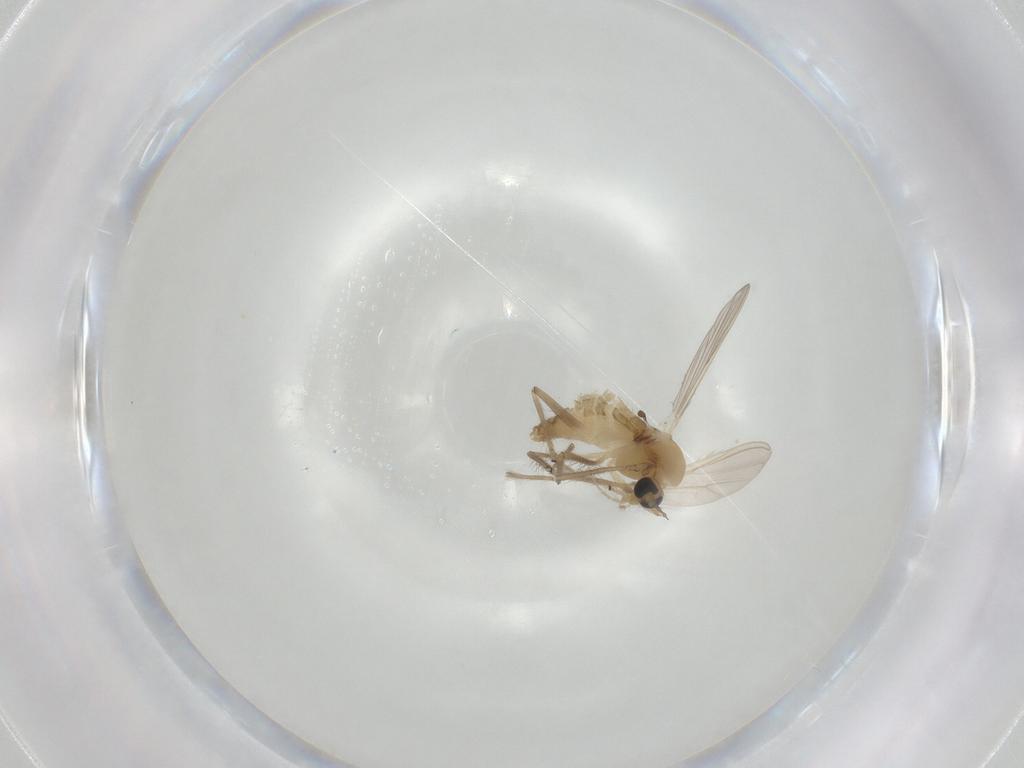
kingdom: Animalia
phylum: Arthropoda
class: Insecta
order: Diptera
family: Chironomidae
